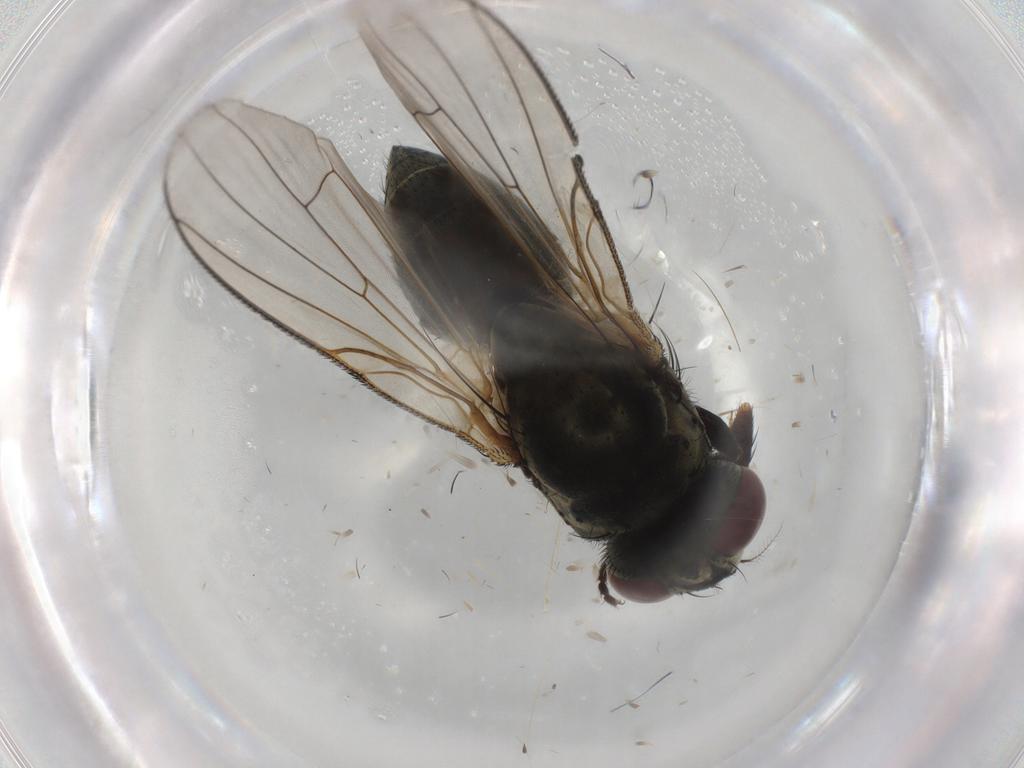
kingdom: Animalia
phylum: Arthropoda
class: Insecta
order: Diptera
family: Muscidae
